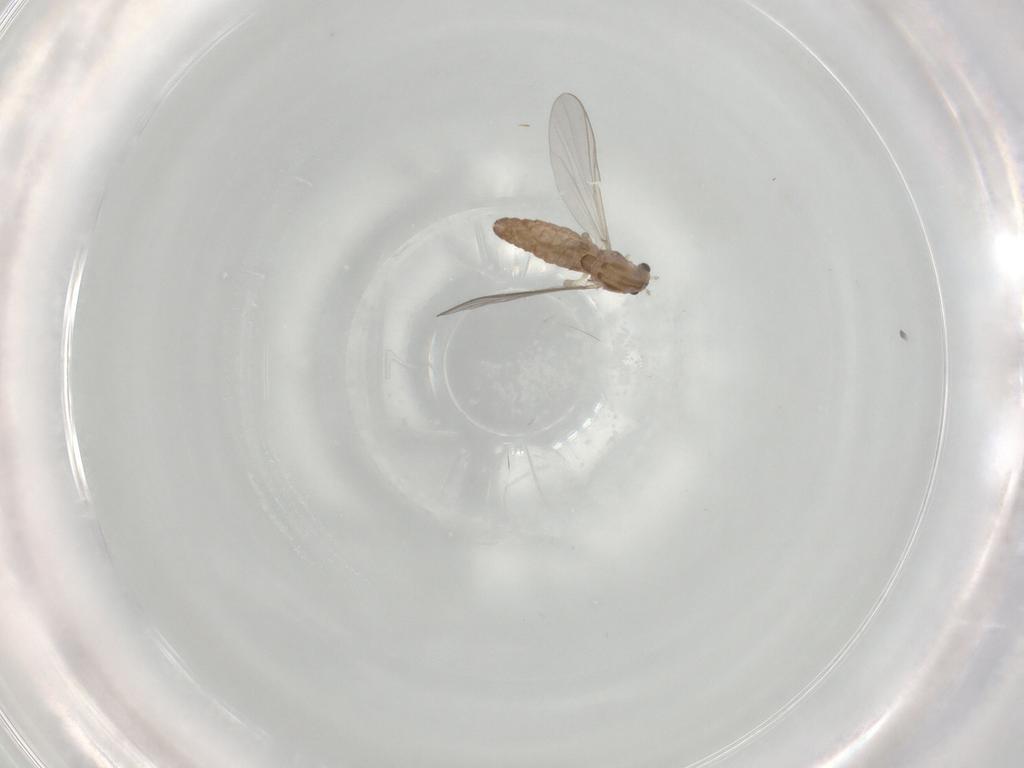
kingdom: Animalia
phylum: Arthropoda
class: Insecta
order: Diptera
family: Chironomidae
